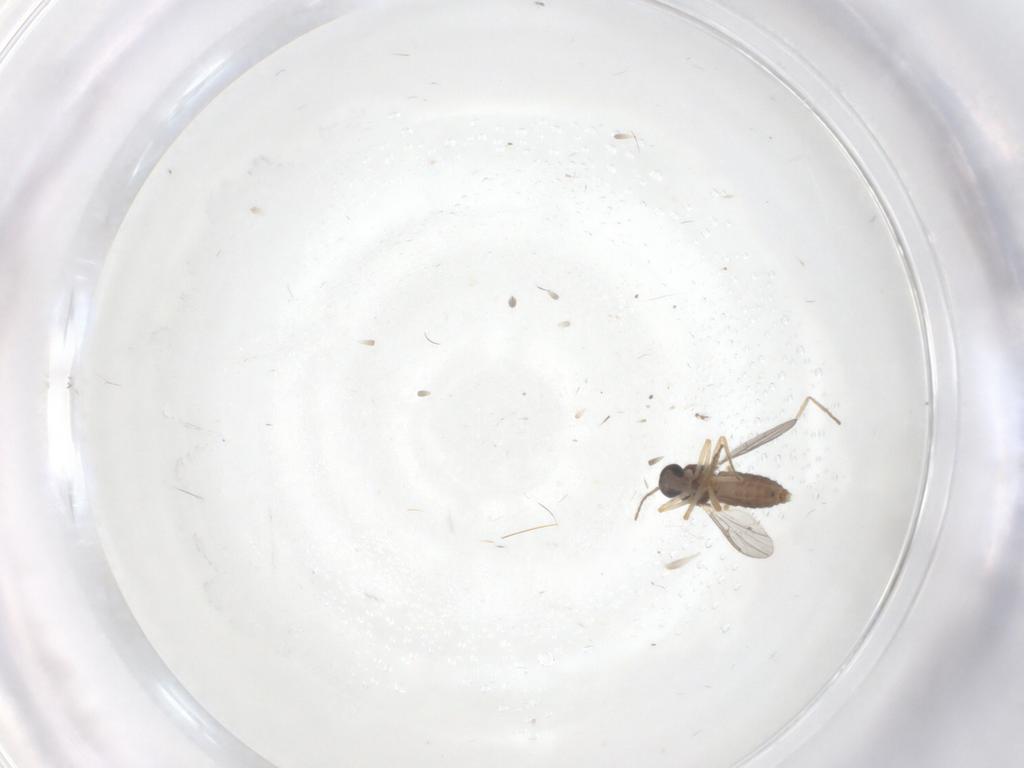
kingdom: Animalia
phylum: Arthropoda
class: Insecta
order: Diptera
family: Ceratopogonidae
